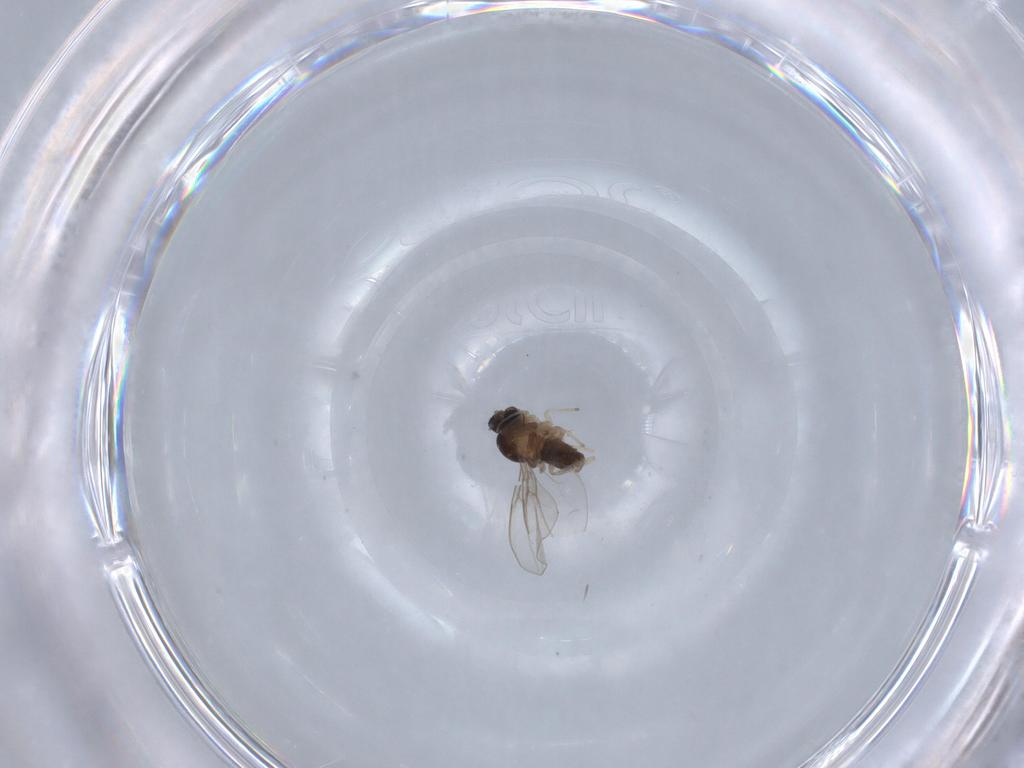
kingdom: Animalia
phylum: Arthropoda
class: Insecta
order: Diptera
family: Cecidomyiidae
